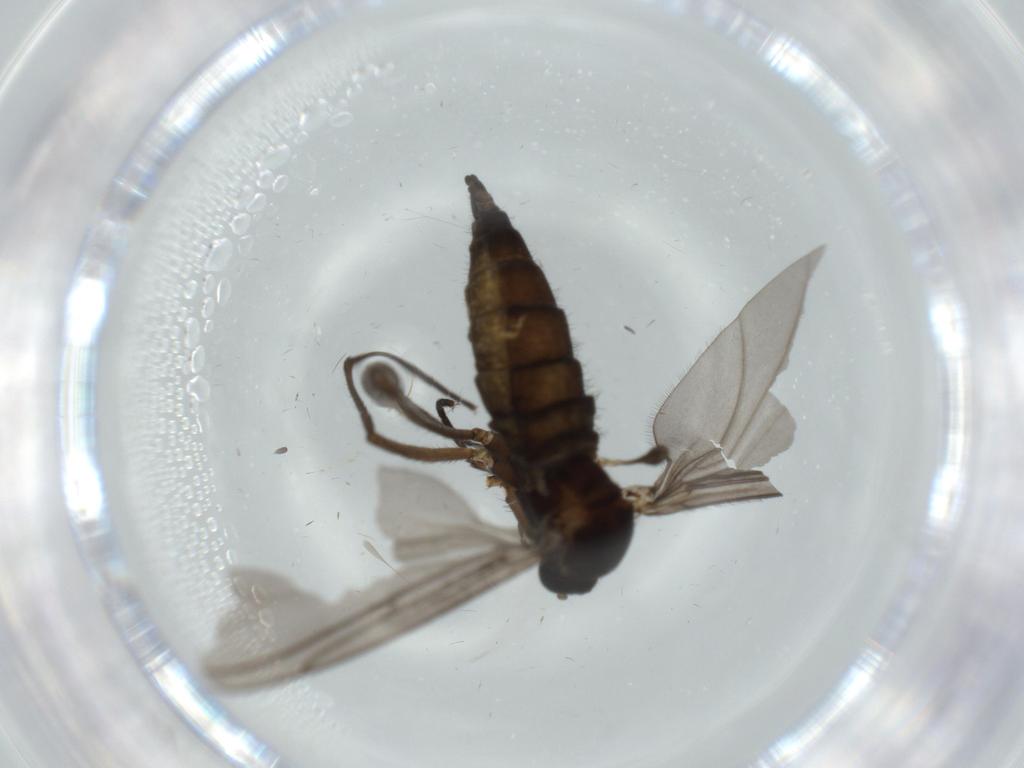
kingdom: Animalia
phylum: Arthropoda
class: Insecta
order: Diptera
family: Sciaridae
